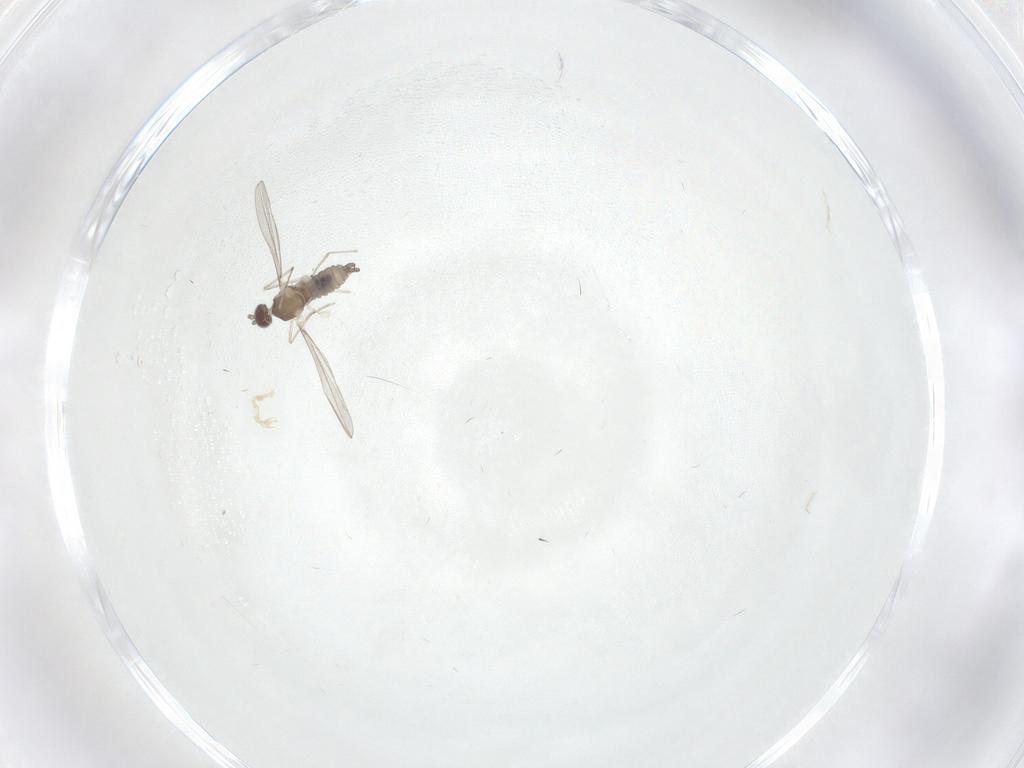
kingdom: Animalia
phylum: Arthropoda
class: Insecta
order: Diptera
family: Cecidomyiidae
